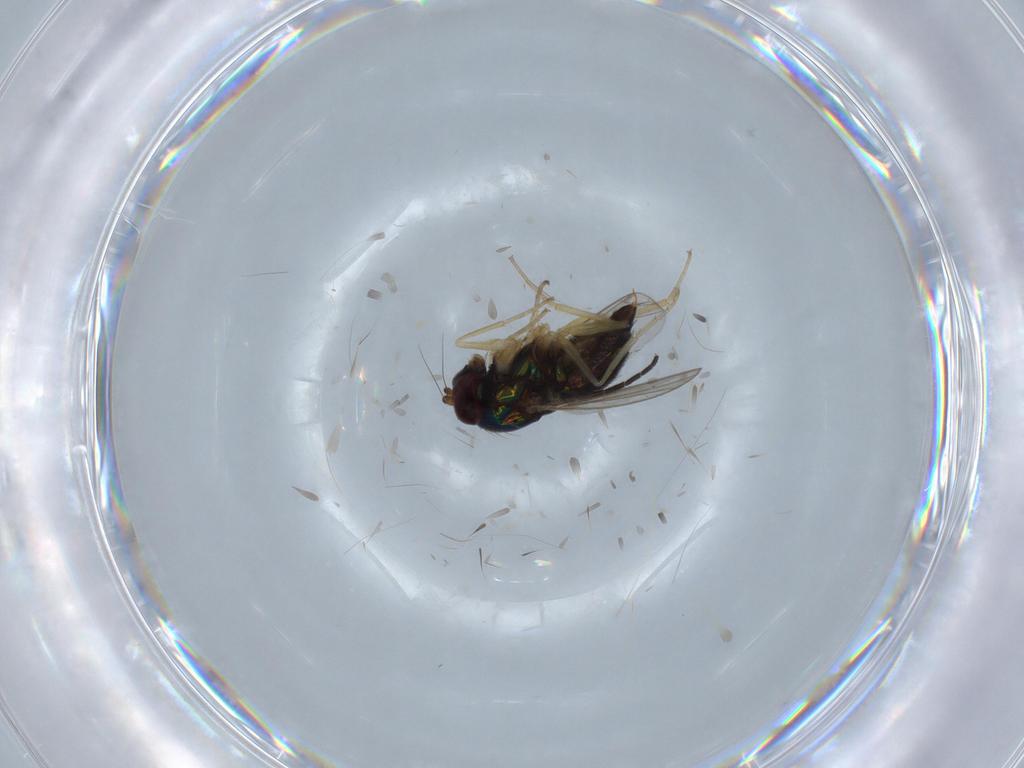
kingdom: Animalia
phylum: Arthropoda
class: Insecta
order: Diptera
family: Dolichopodidae
